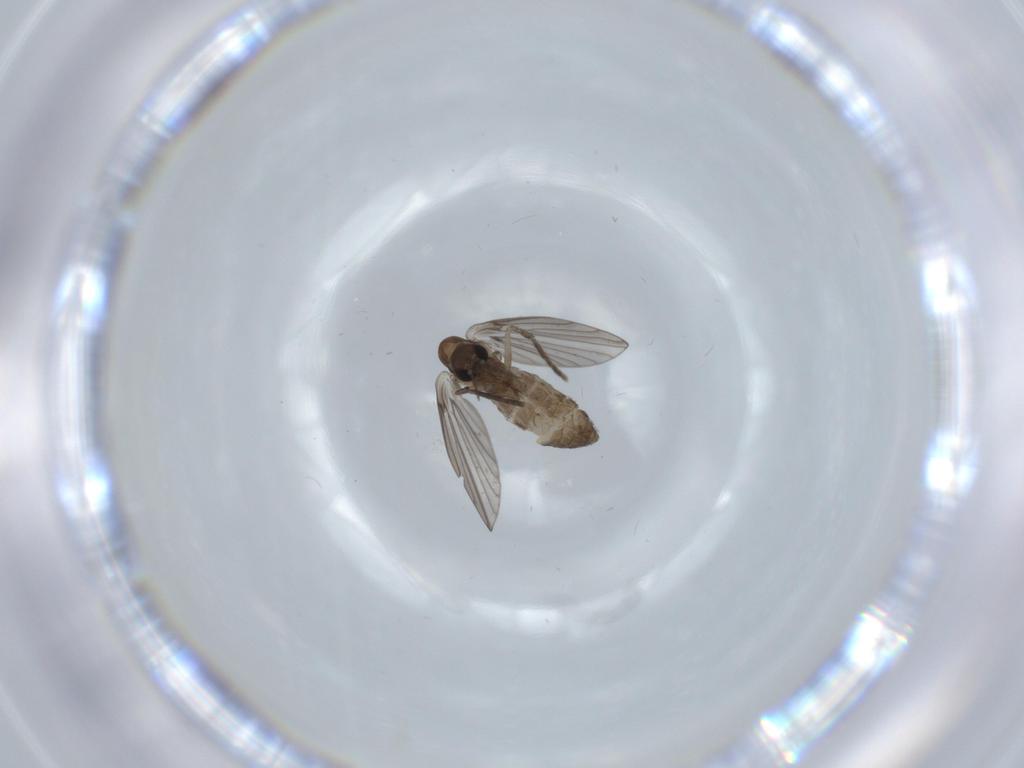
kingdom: Animalia
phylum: Arthropoda
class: Insecta
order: Diptera
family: Psychodidae
